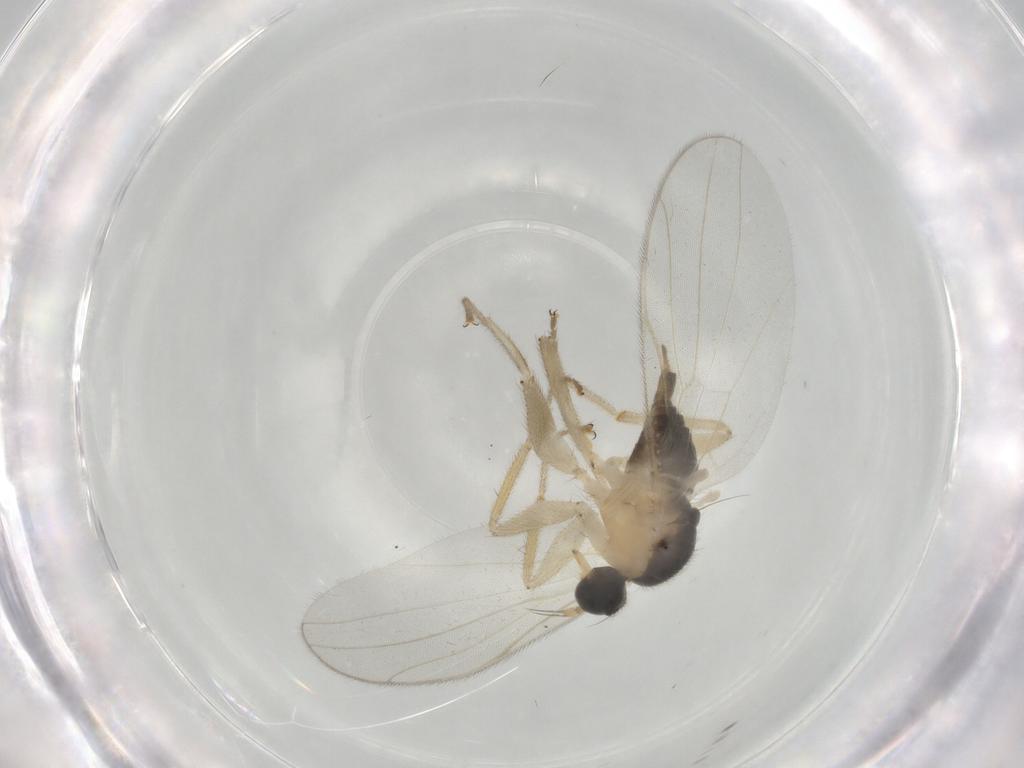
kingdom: Animalia
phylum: Arthropoda
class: Insecta
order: Diptera
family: Hybotidae
